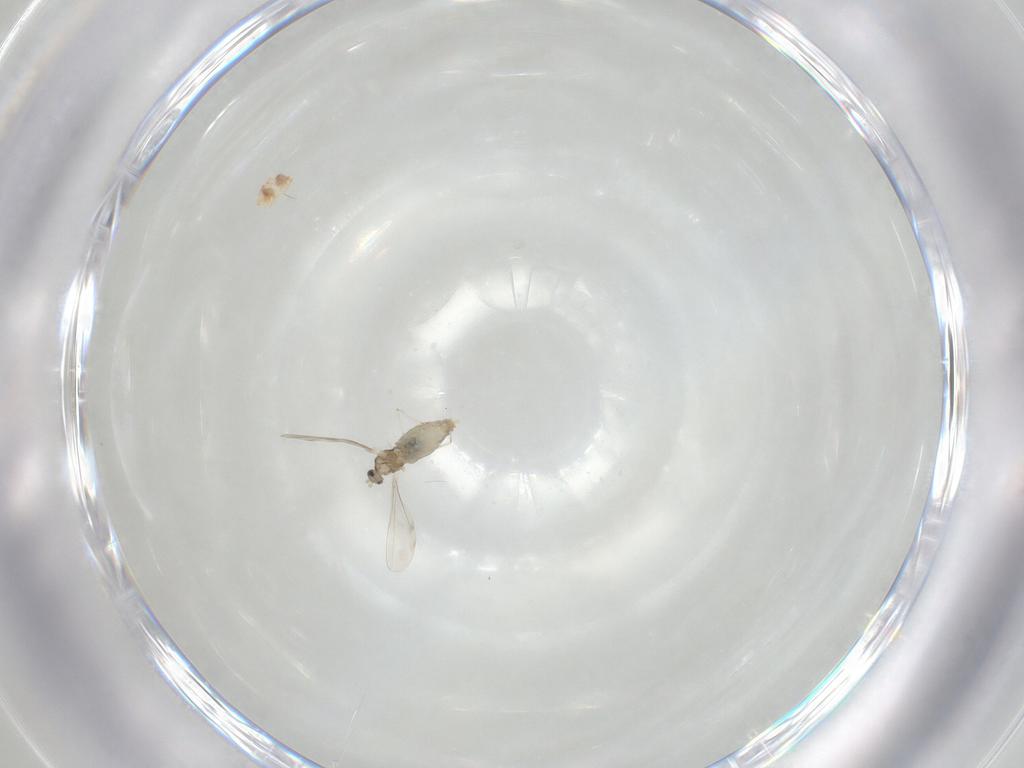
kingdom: Animalia
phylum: Arthropoda
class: Insecta
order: Diptera
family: Cecidomyiidae
